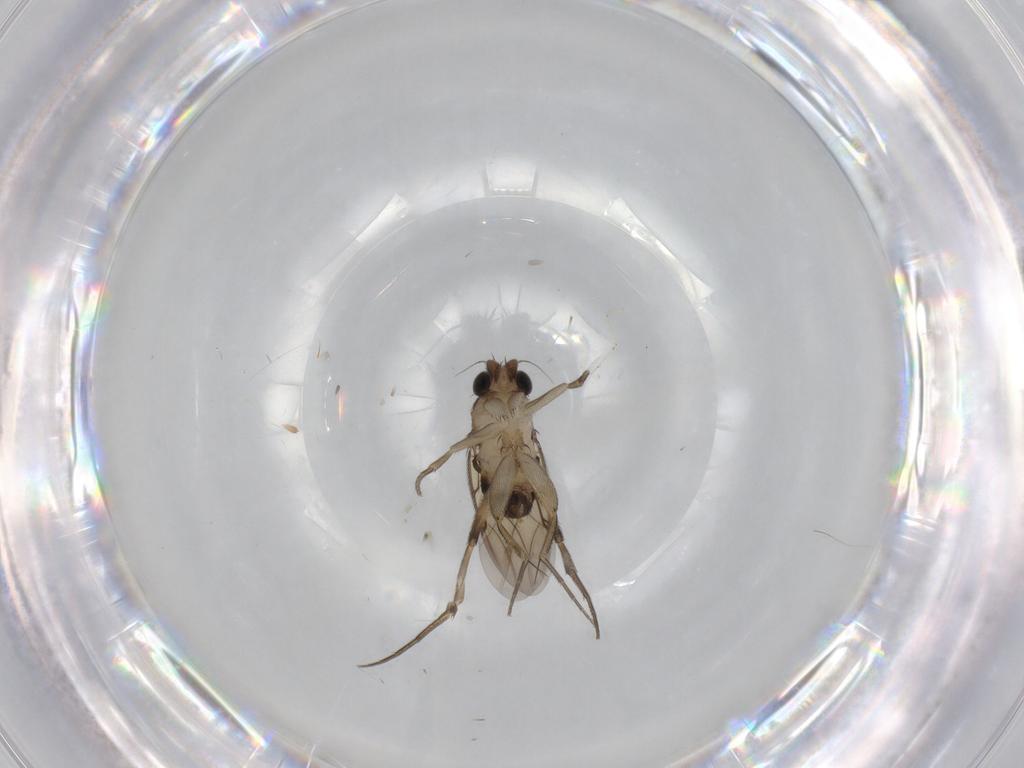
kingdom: Animalia
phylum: Arthropoda
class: Insecta
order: Diptera
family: Phoridae
